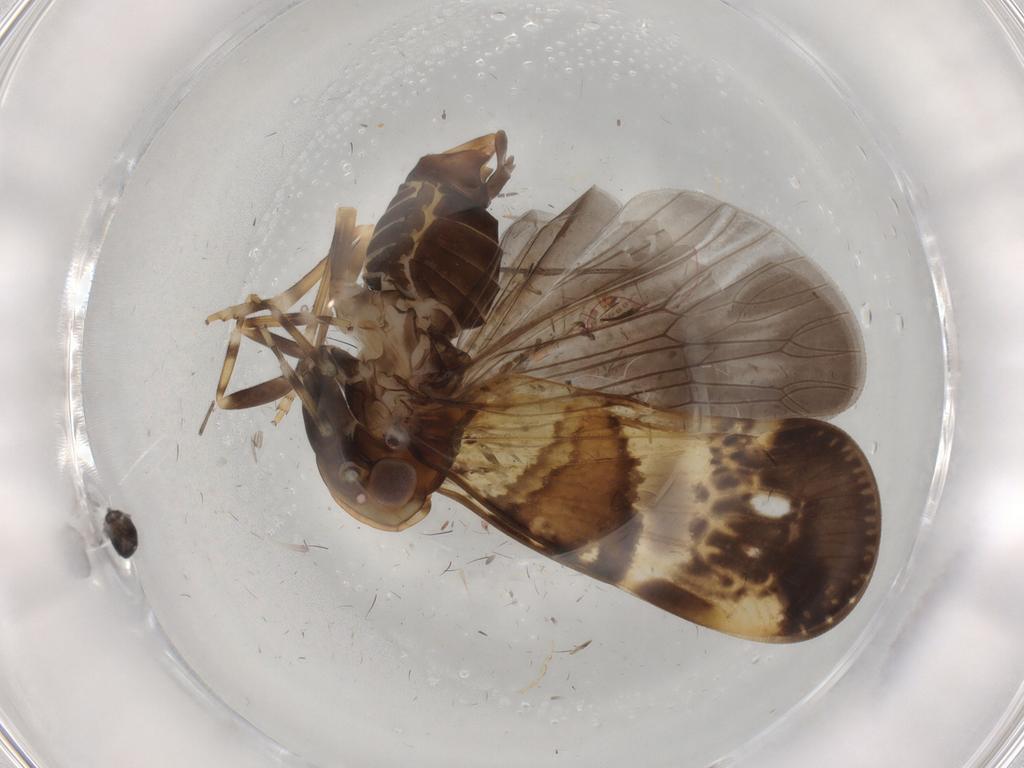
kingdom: Animalia
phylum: Arthropoda
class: Insecta
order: Hemiptera
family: Cixiidae
